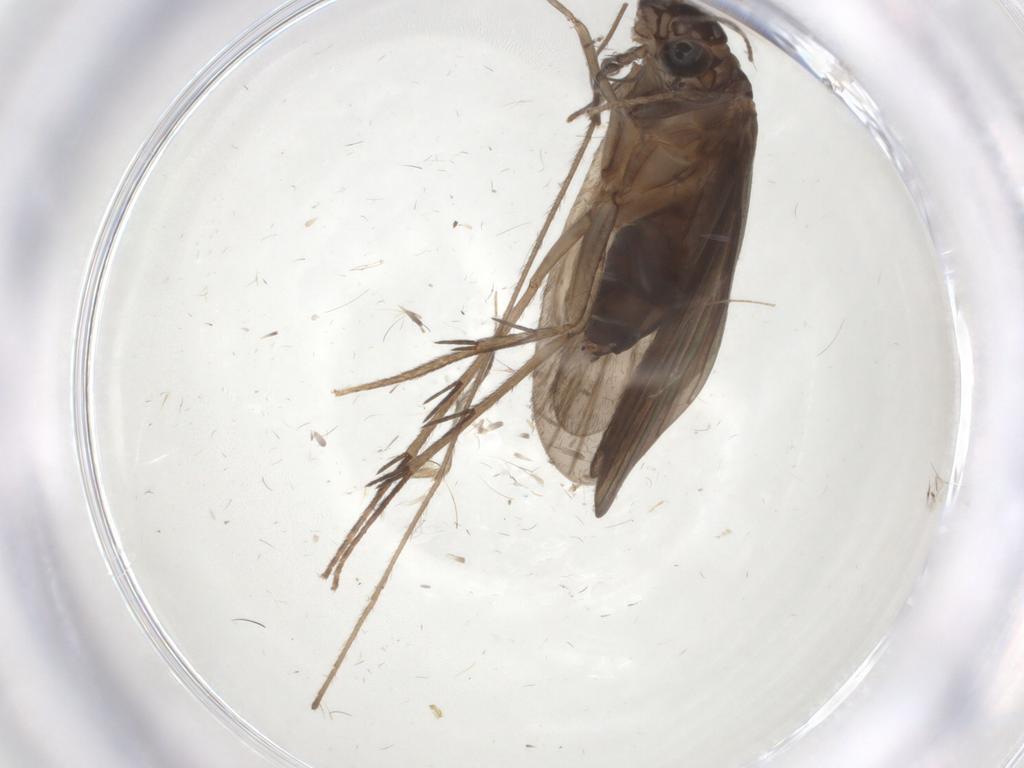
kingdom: Animalia
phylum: Arthropoda
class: Insecta
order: Trichoptera
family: Philopotamidae
